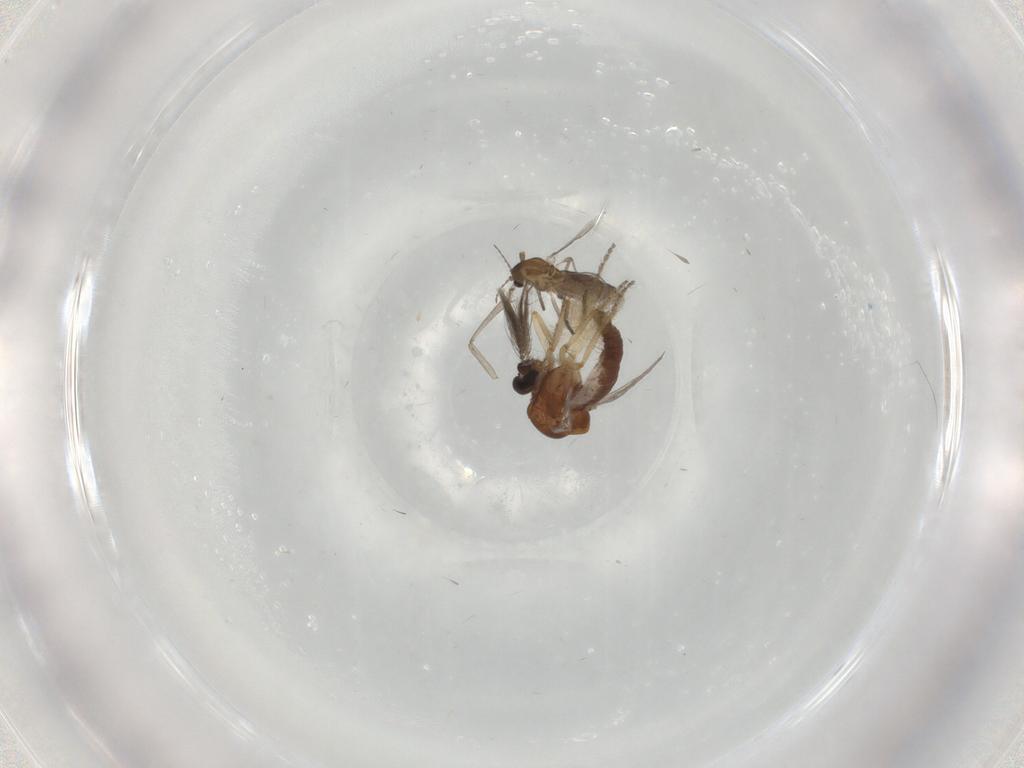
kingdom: Animalia
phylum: Arthropoda
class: Insecta
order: Diptera
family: Chironomidae
